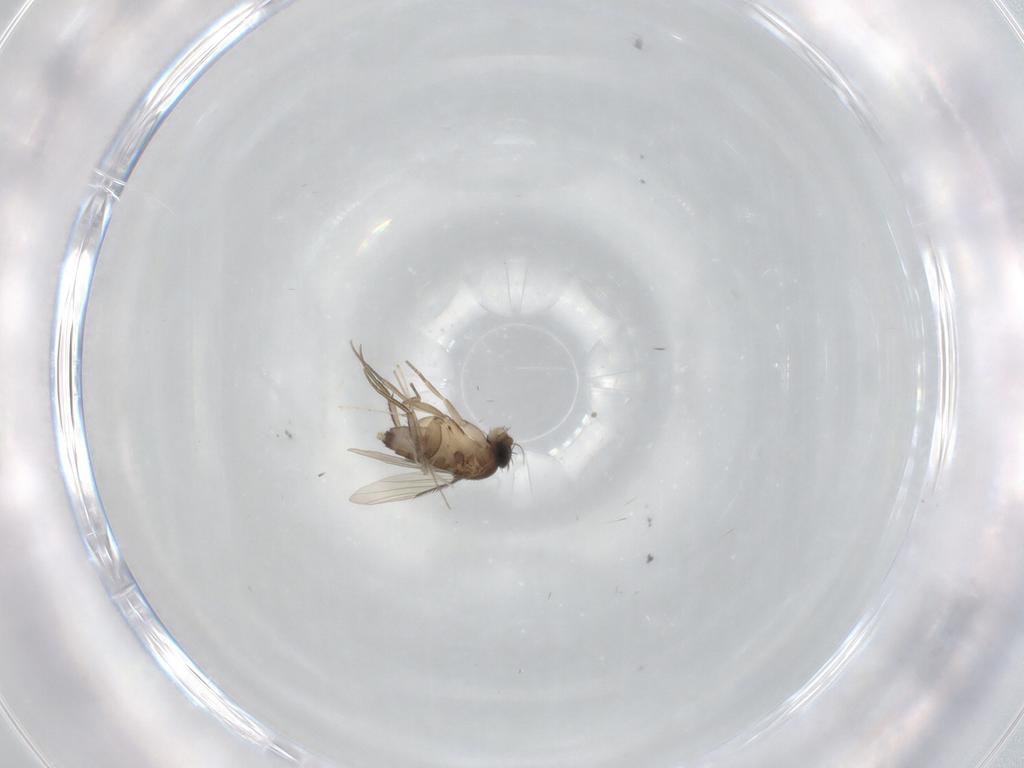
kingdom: Animalia
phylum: Arthropoda
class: Insecta
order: Diptera
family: Phoridae
